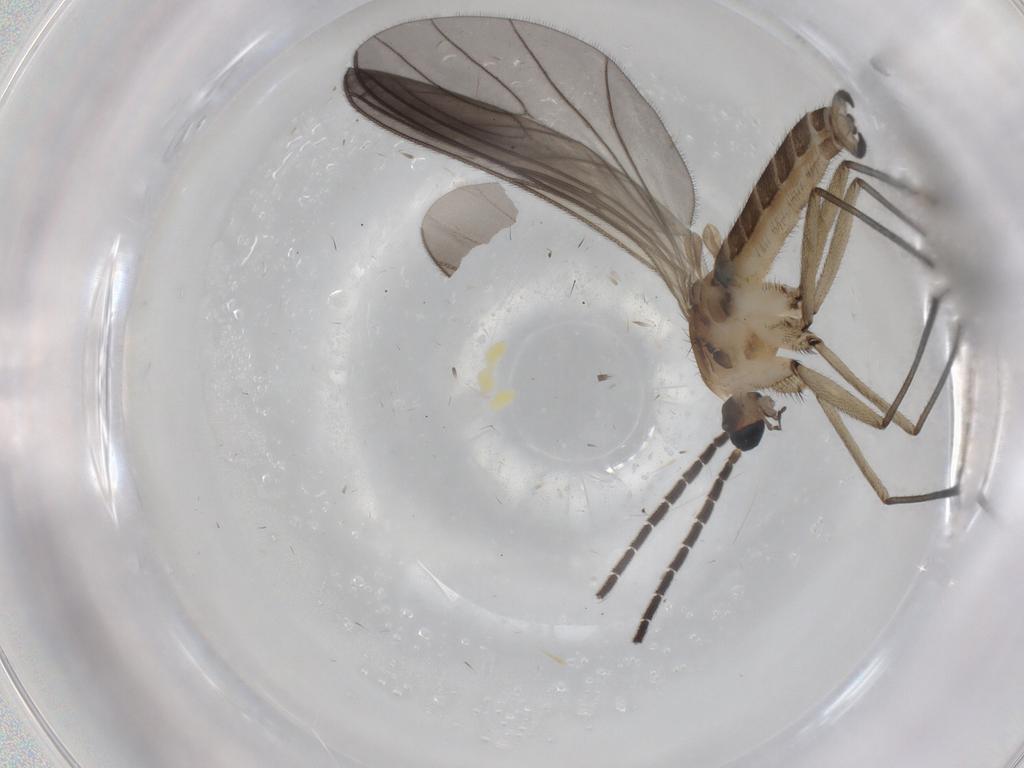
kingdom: Animalia
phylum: Arthropoda
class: Insecta
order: Diptera
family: Sciaridae
